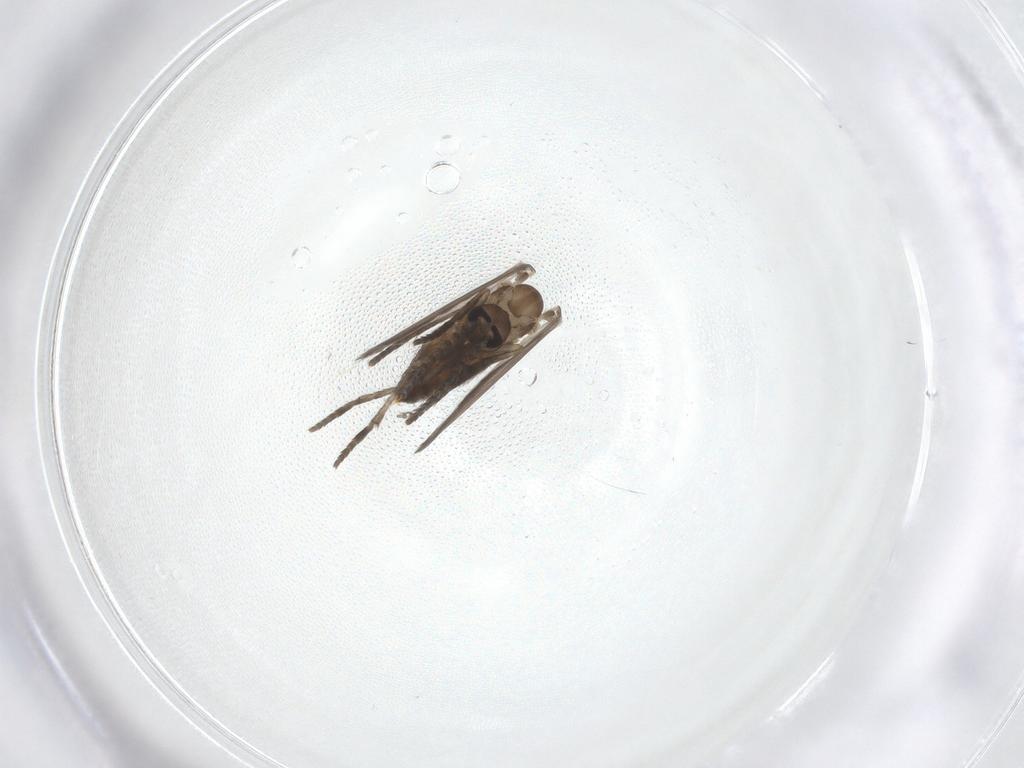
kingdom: Animalia
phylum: Arthropoda
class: Insecta
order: Diptera
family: Psychodidae
